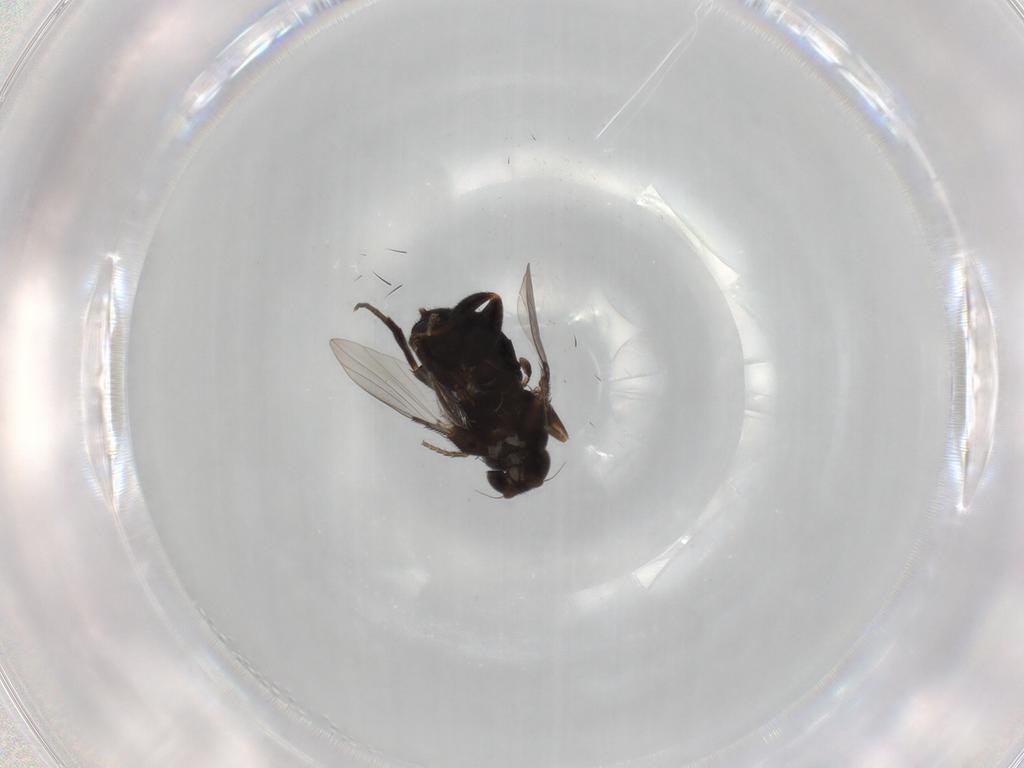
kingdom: Animalia
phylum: Arthropoda
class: Insecta
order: Diptera
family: Phoridae
